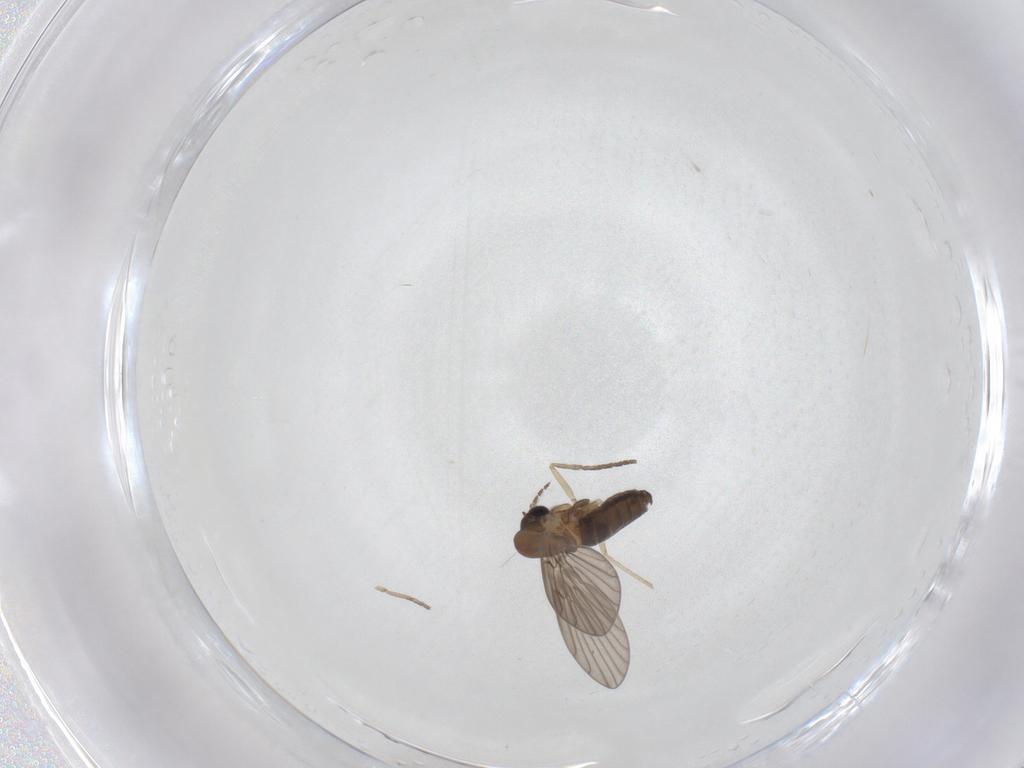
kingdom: Animalia
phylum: Arthropoda
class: Insecta
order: Diptera
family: Psychodidae
